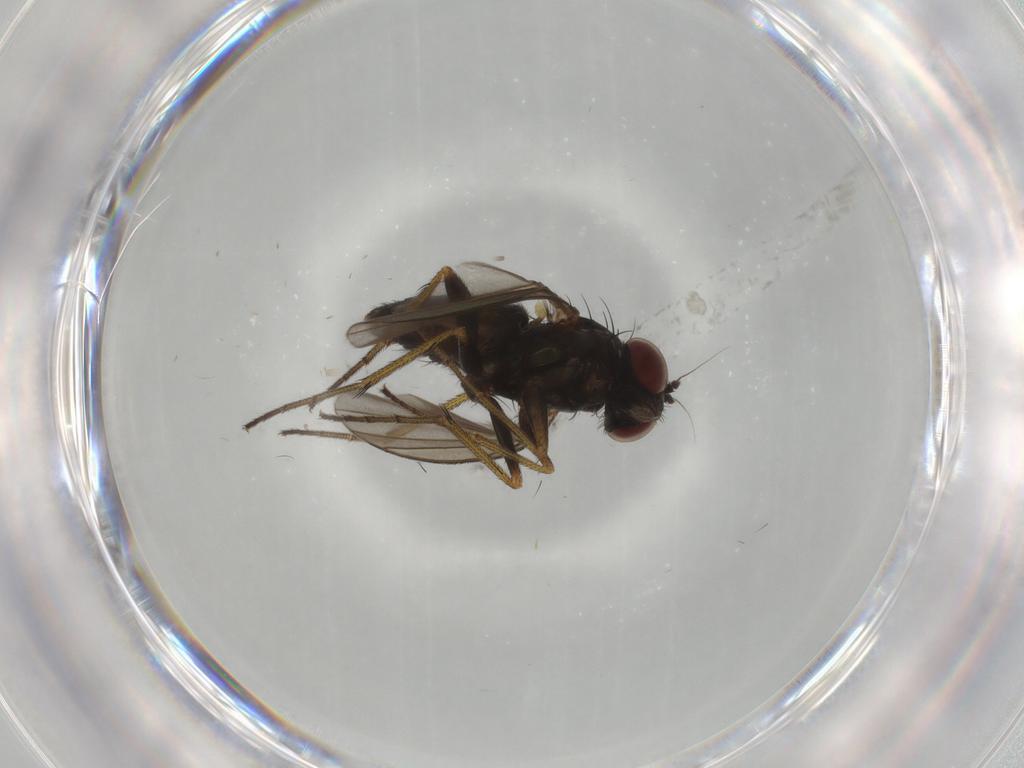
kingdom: Animalia
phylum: Arthropoda
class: Insecta
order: Diptera
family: Dolichopodidae
